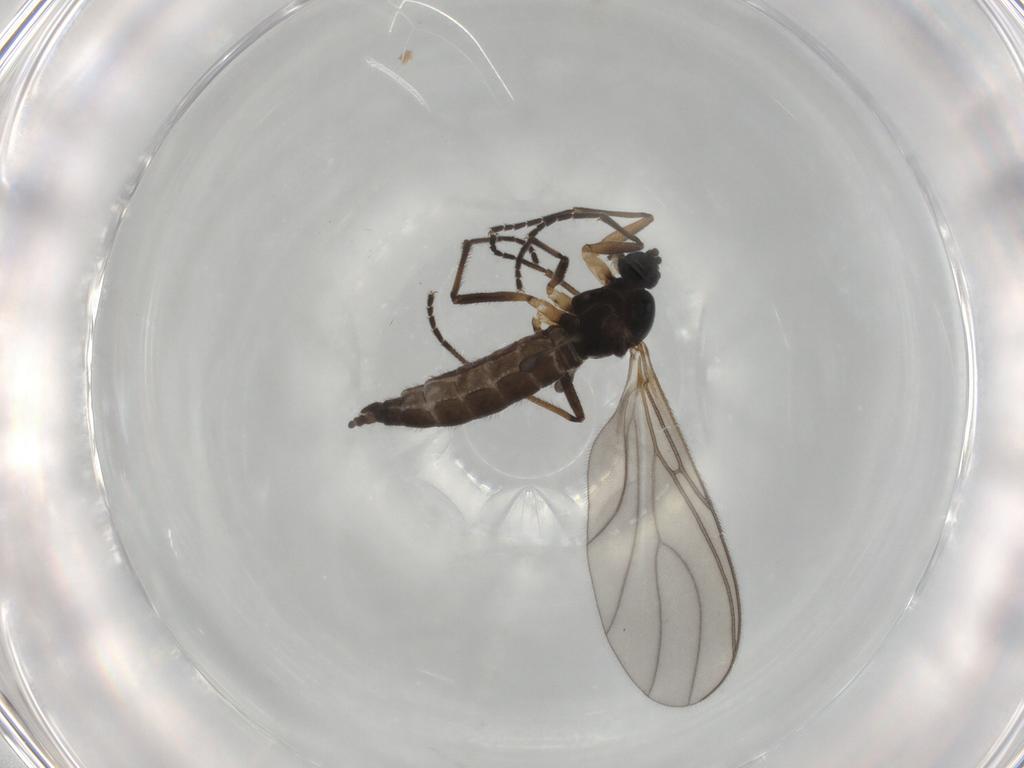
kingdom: Animalia
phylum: Arthropoda
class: Insecta
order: Diptera
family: Sciaridae
